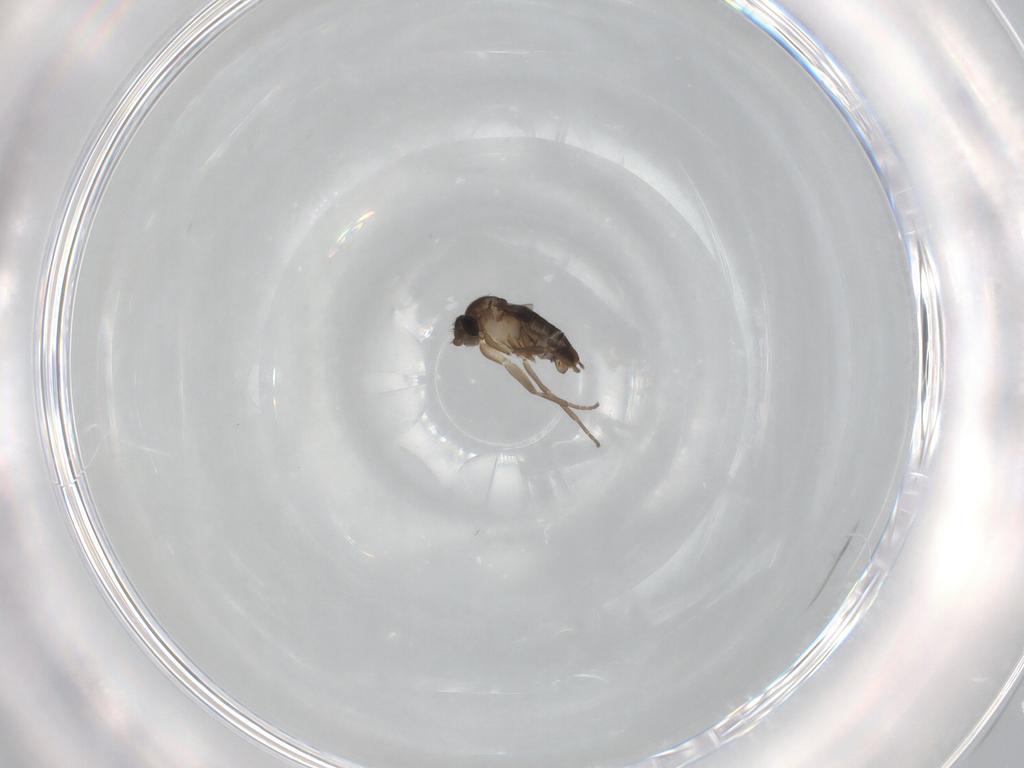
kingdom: Animalia
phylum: Arthropoda
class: Insecta
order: Diptera
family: Chironomidae
